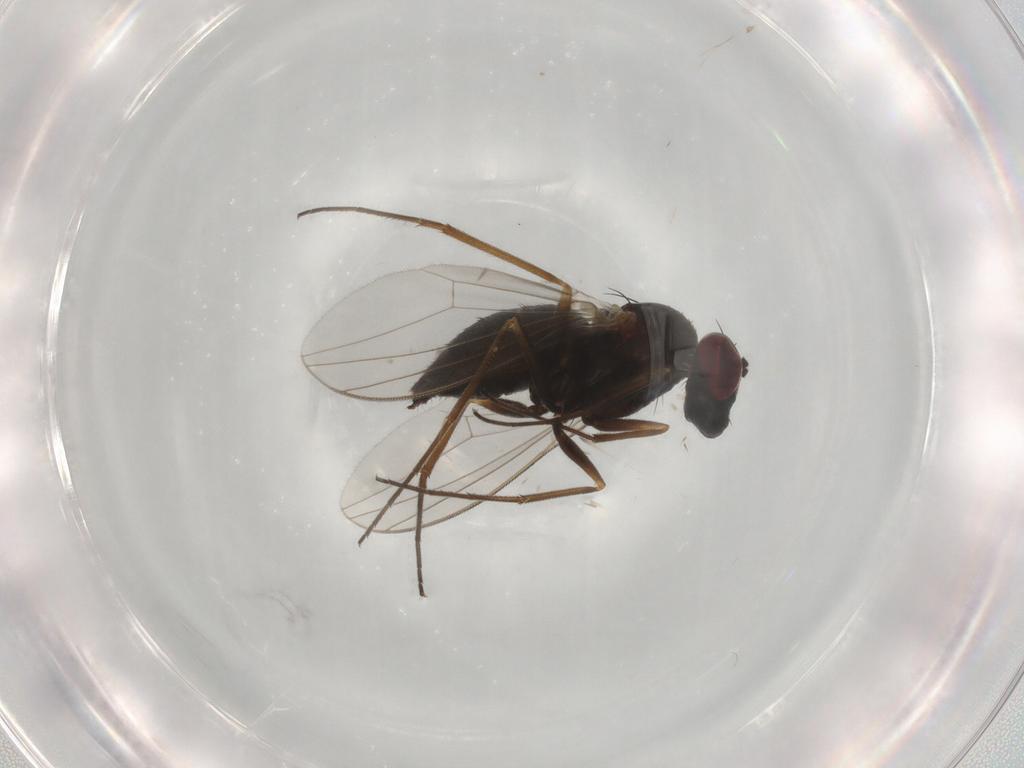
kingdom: Animalia
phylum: Arthropoda
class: Insecta
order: Diptera
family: Dolichopodidae
